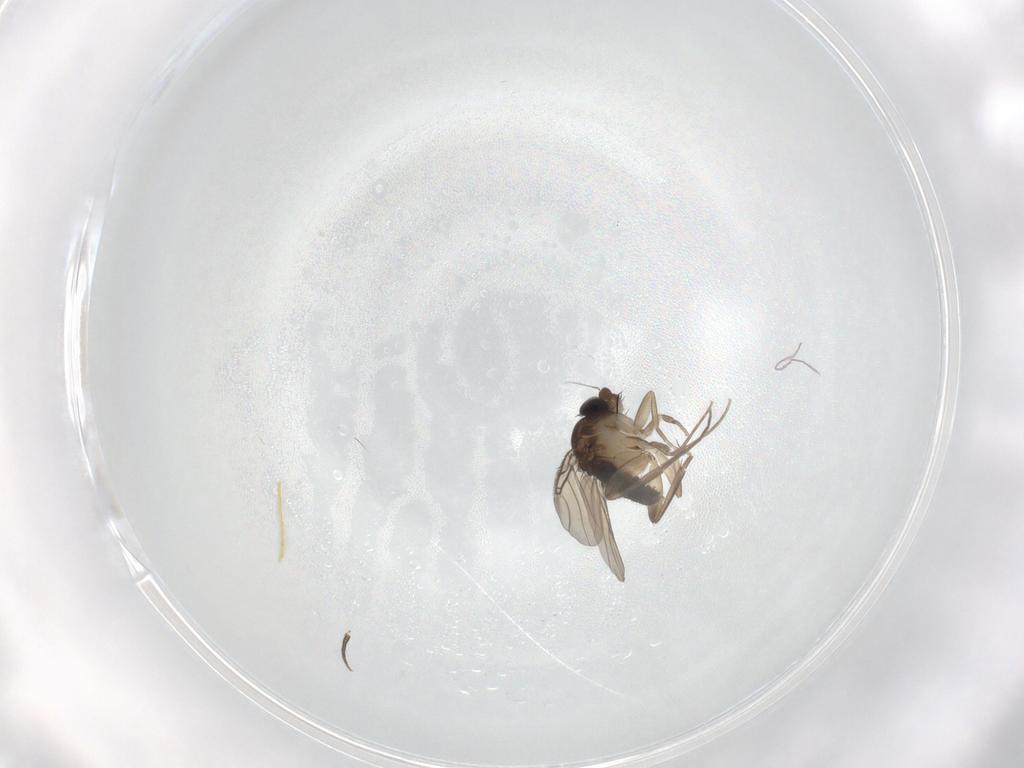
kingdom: Animalia
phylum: Arthropoda
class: Insecta
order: Diptera
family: Phoridae
